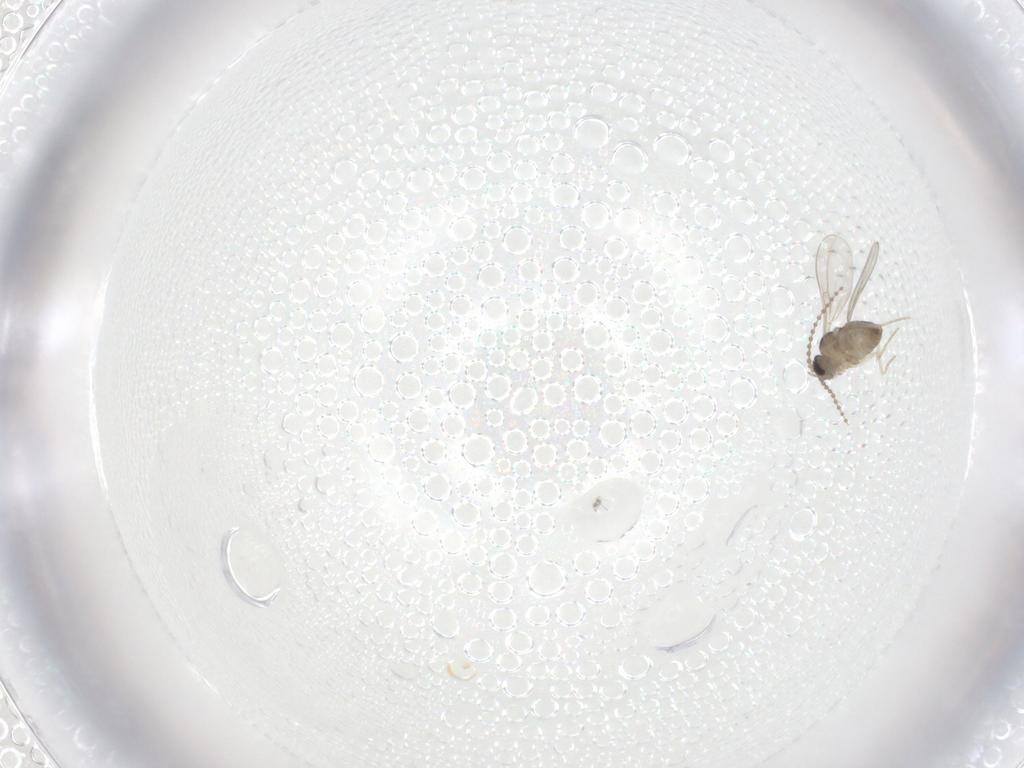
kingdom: Animalia
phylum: Arthropoda
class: Insecta
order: Diptera
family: Cecidomyiidae
